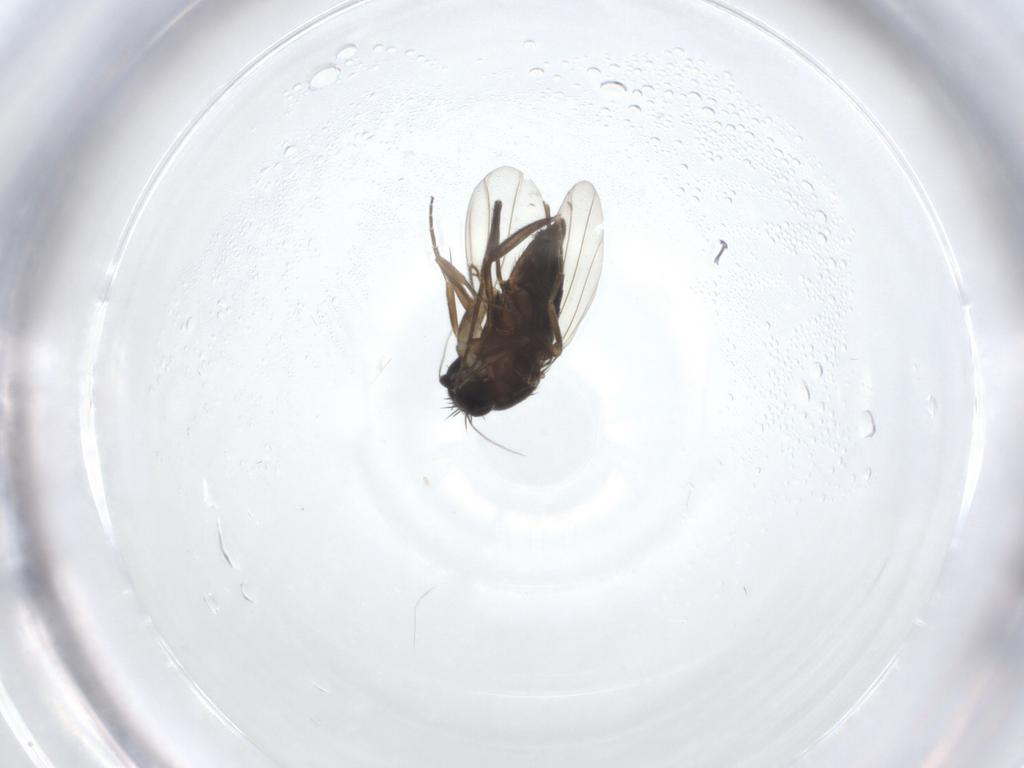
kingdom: Animalia
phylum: Arthropoda
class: Insecta
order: Diptera
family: Phoridae
